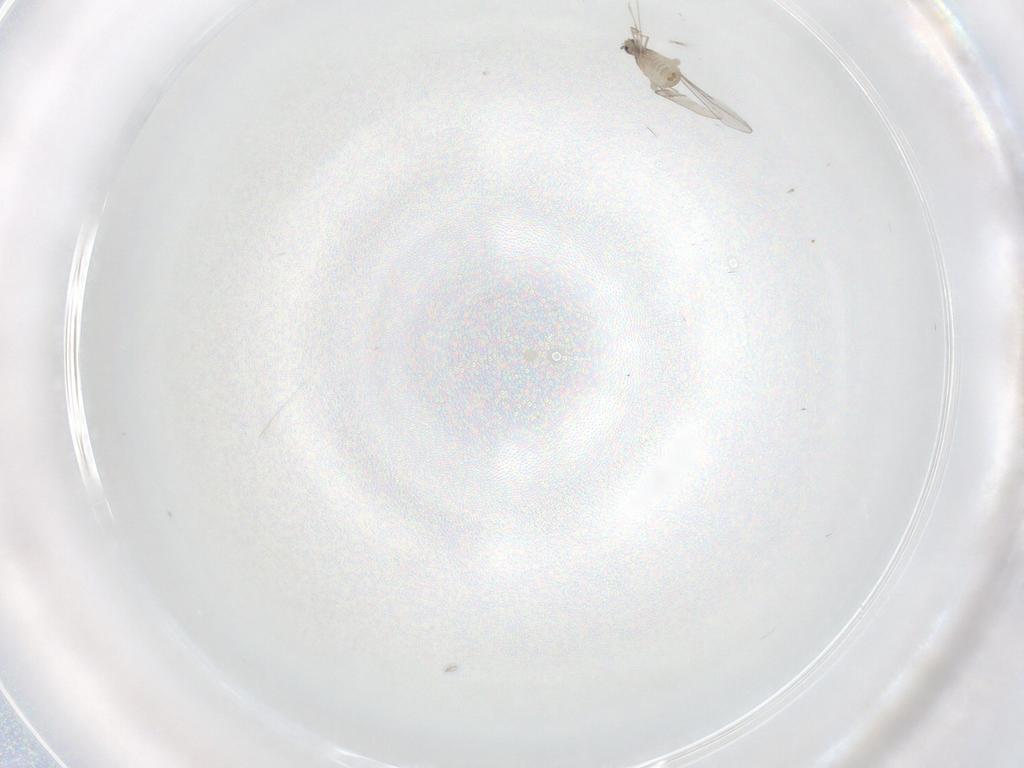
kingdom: Animalia
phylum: Arthropoda
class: Insecta
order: Diptera
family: Cecidomyiidae
